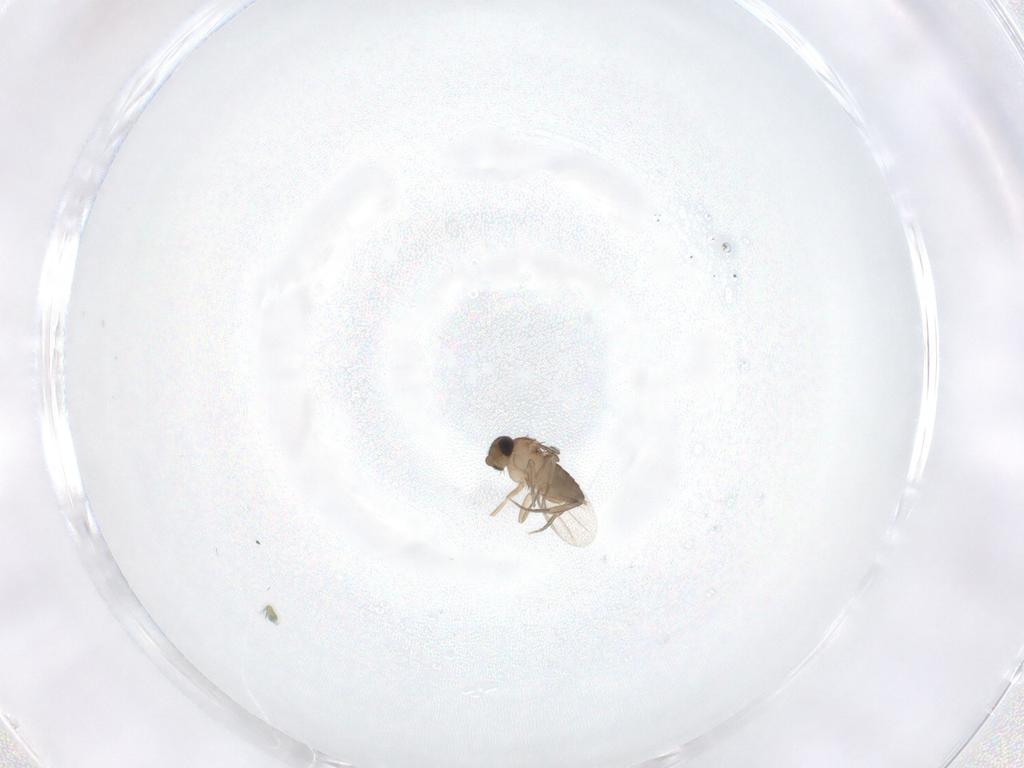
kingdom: Animalia
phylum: Arthropoda
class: Insecta
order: Diptera
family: Phoridae
